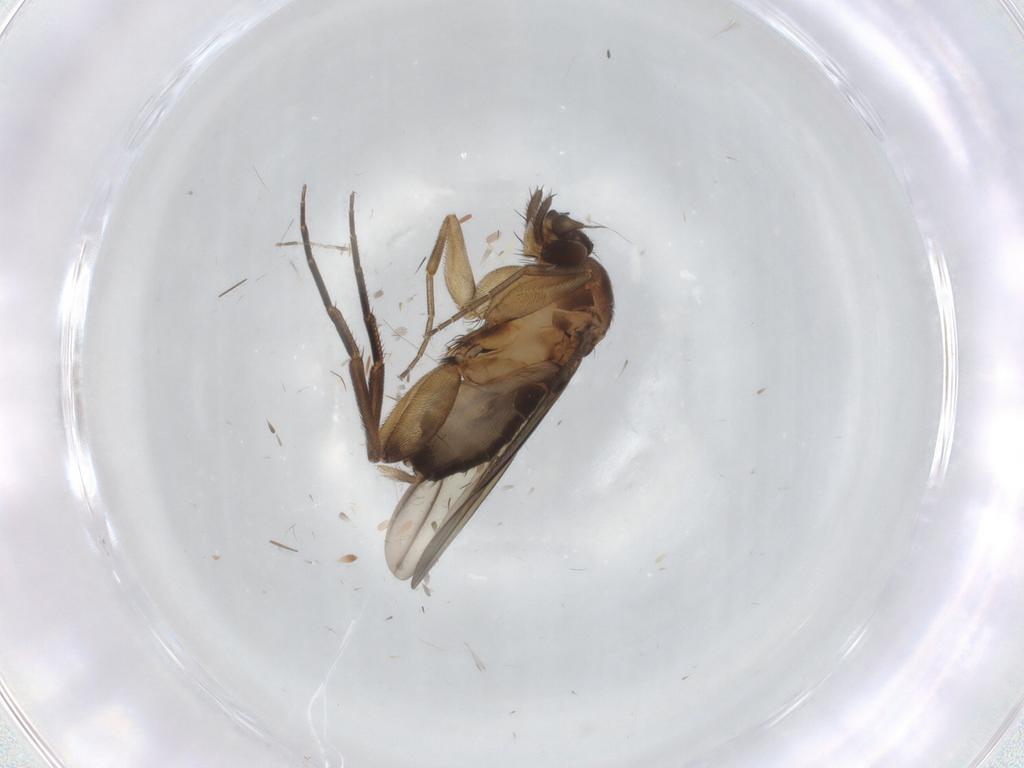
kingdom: Animalia
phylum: Arthropoda
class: Insecta
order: Diptera
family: Phoridae
